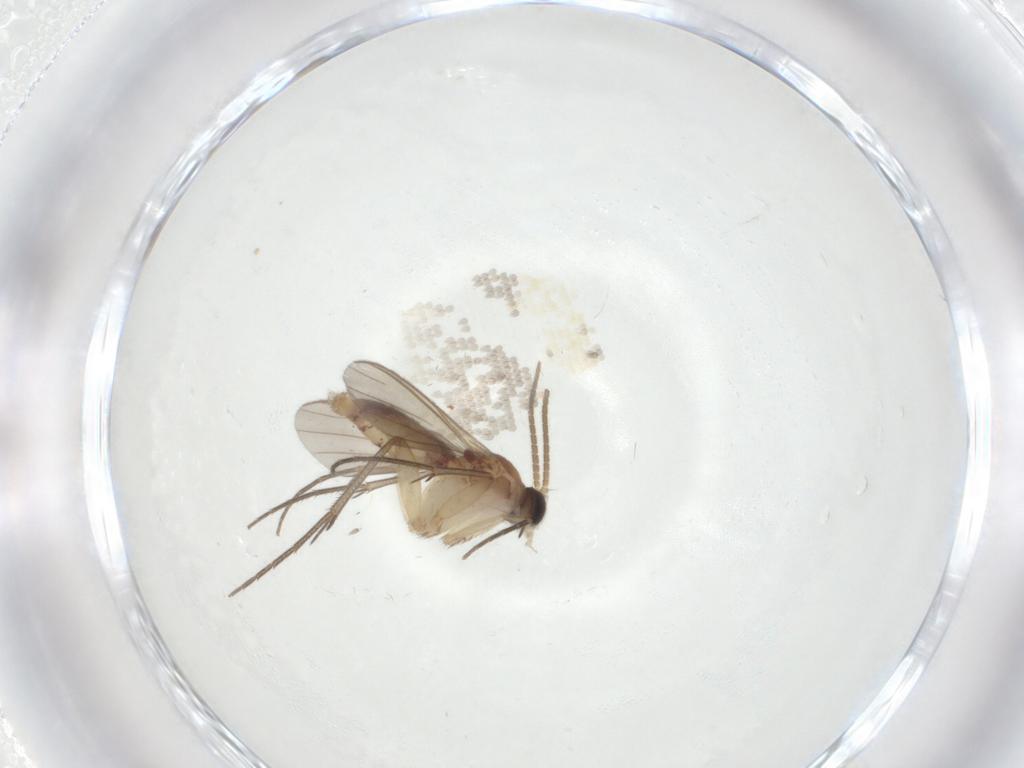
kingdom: Animalia
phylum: Arthropoda
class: Insecta
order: Diptera
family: Mycetophilidae
